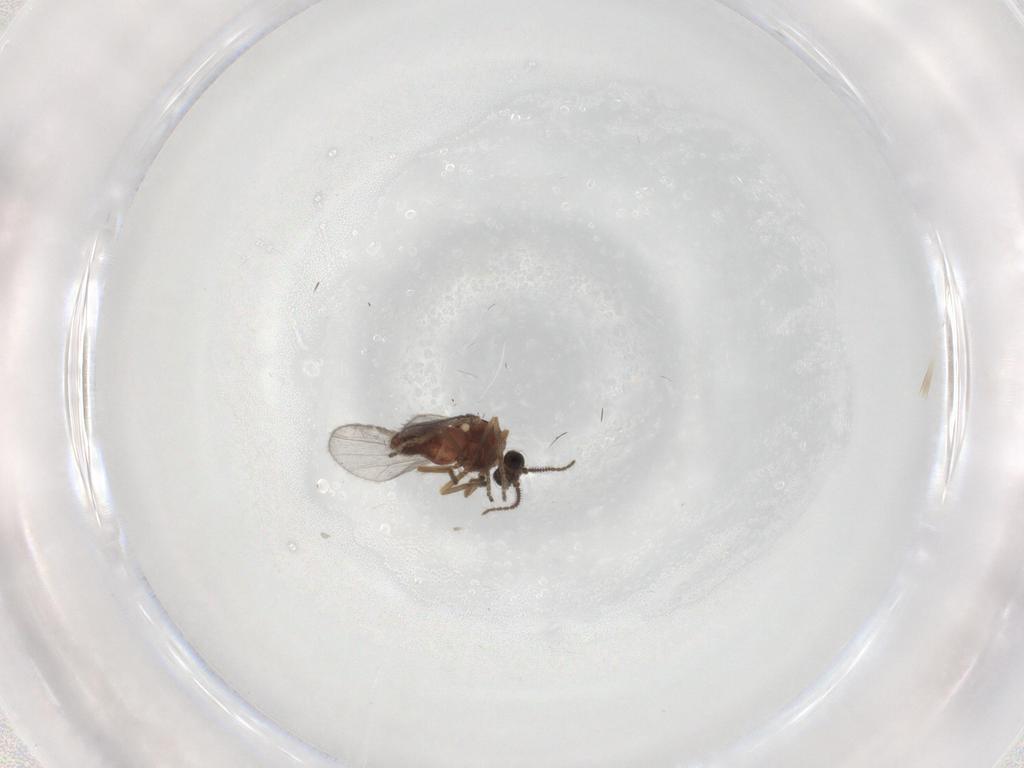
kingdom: Animalia
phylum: Arthropoda
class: Insecta
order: Diptera
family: Ceratopogonidae
